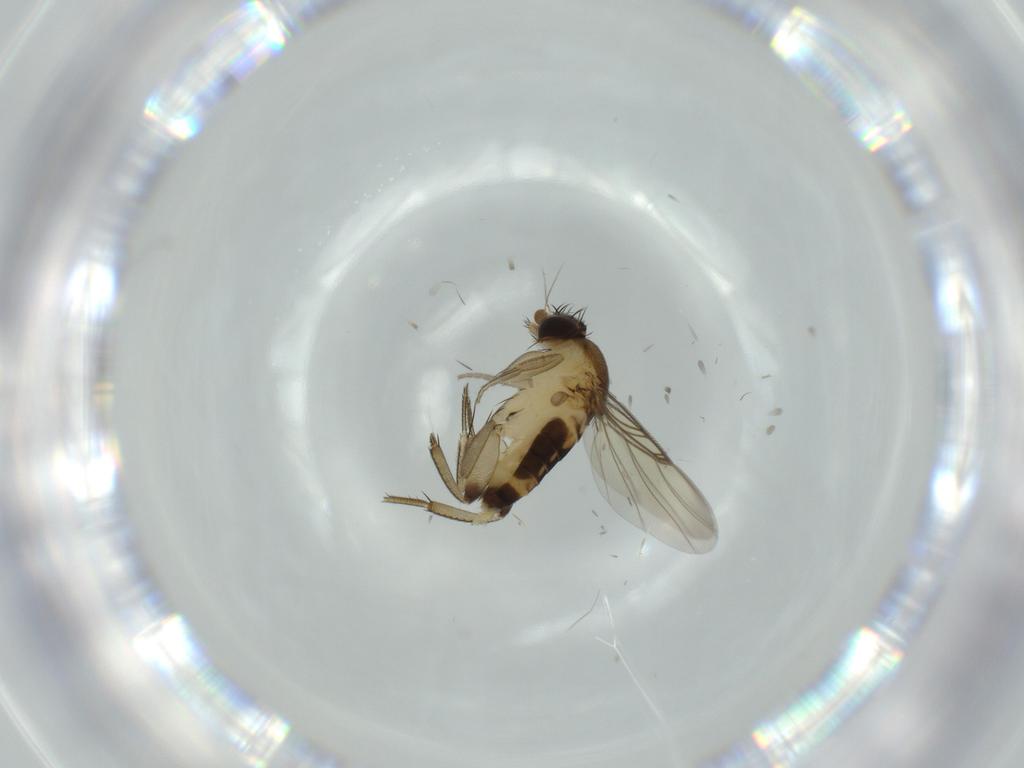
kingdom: Animalia
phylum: Arthropoda
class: Insecta
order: Diptera
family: Phoridae
